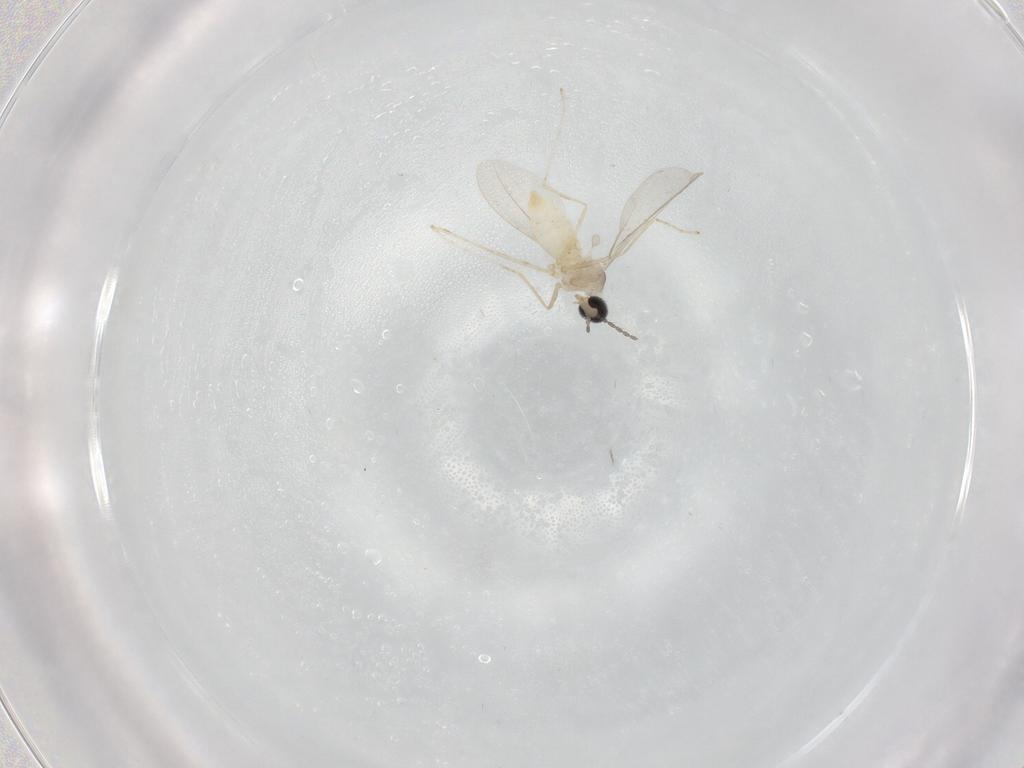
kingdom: Animalia
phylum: Arthropoda
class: Insecta
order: Diptera
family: Cecidomyiidae
